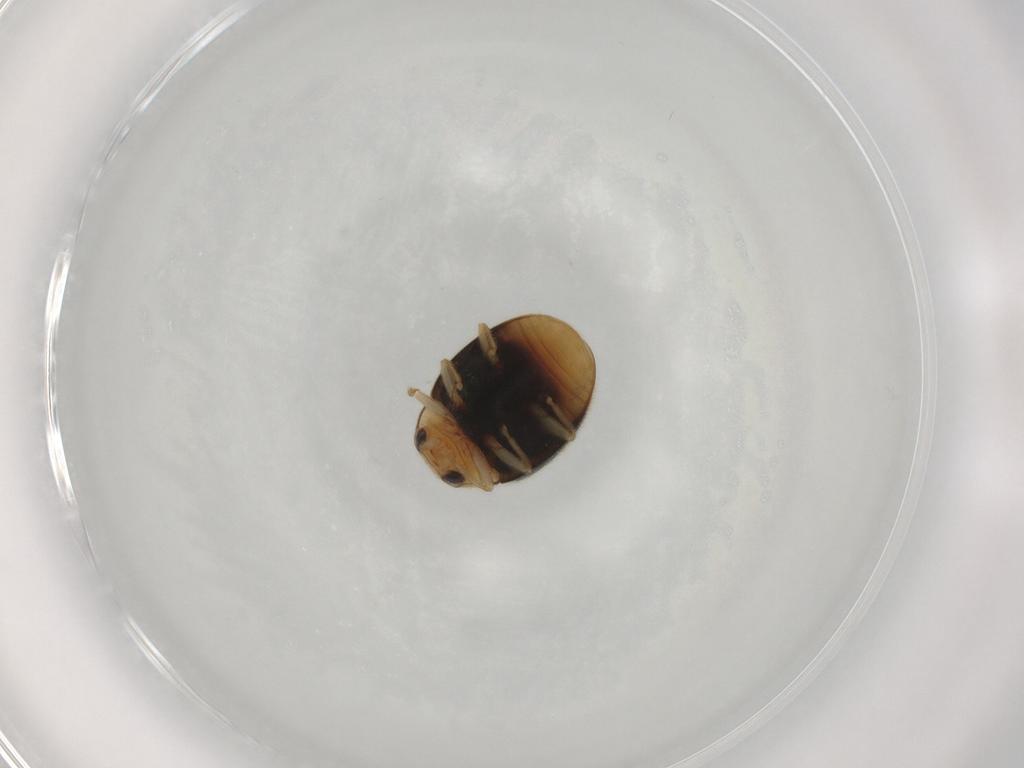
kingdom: Animalia
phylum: Arthropoda
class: Insecta
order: Coleoptera
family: Coccinellidae
